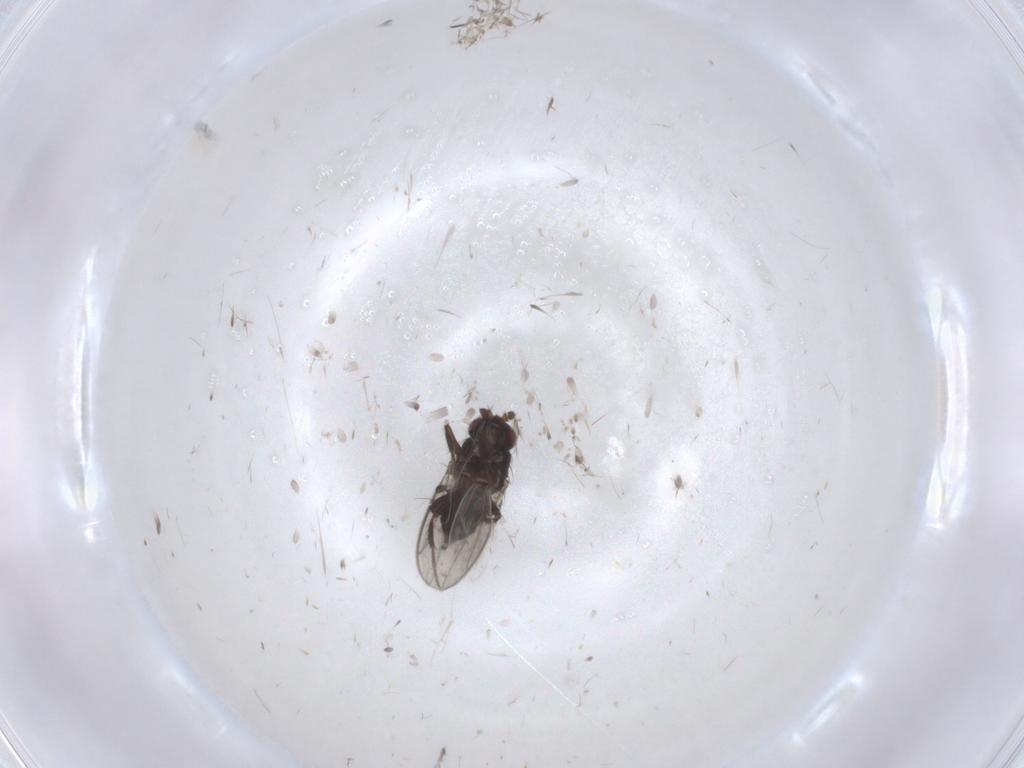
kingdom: Animalia
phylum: Arthropoda
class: Insecta
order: Diptera
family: Sphaeroceridae
